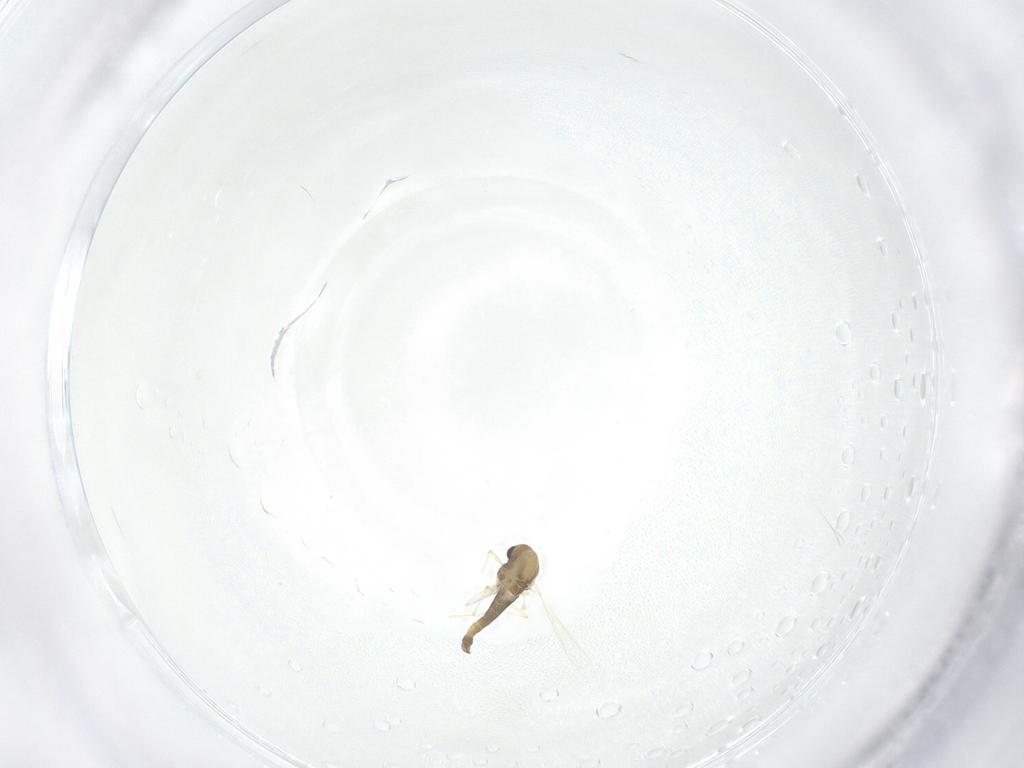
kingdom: Animalia
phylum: Arthropoda
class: Insecta
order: Diptera
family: Chironomidae
